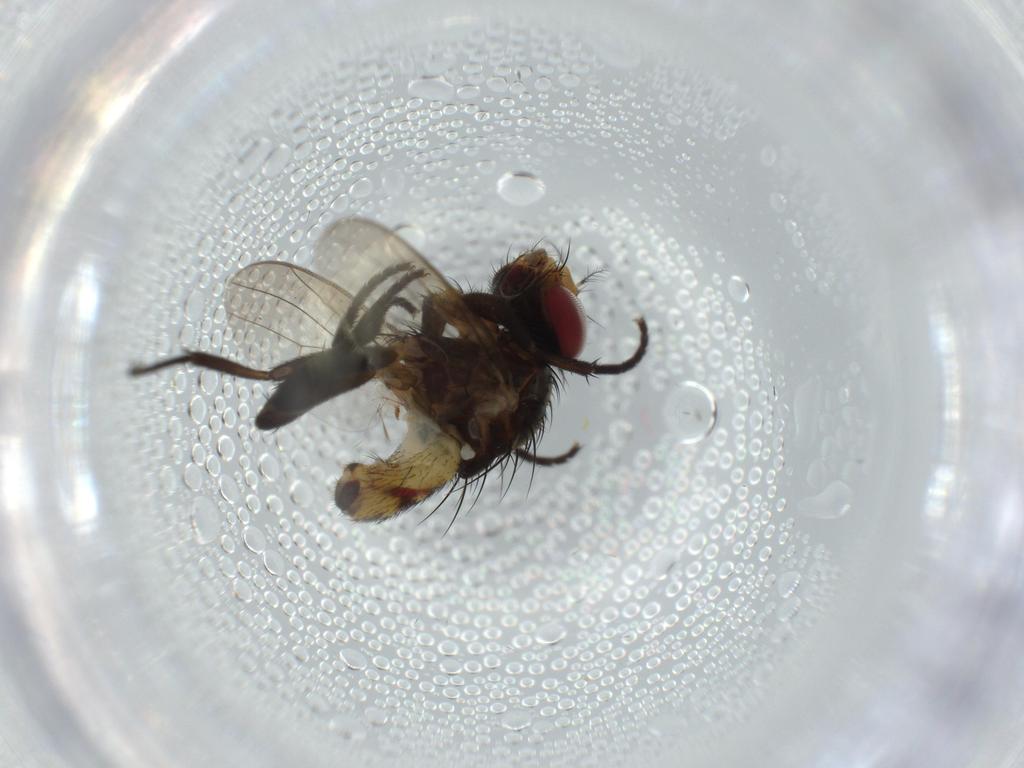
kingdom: Animalia
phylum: Arthropoda
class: Insecta
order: Diptera
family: Anthomyiidae
